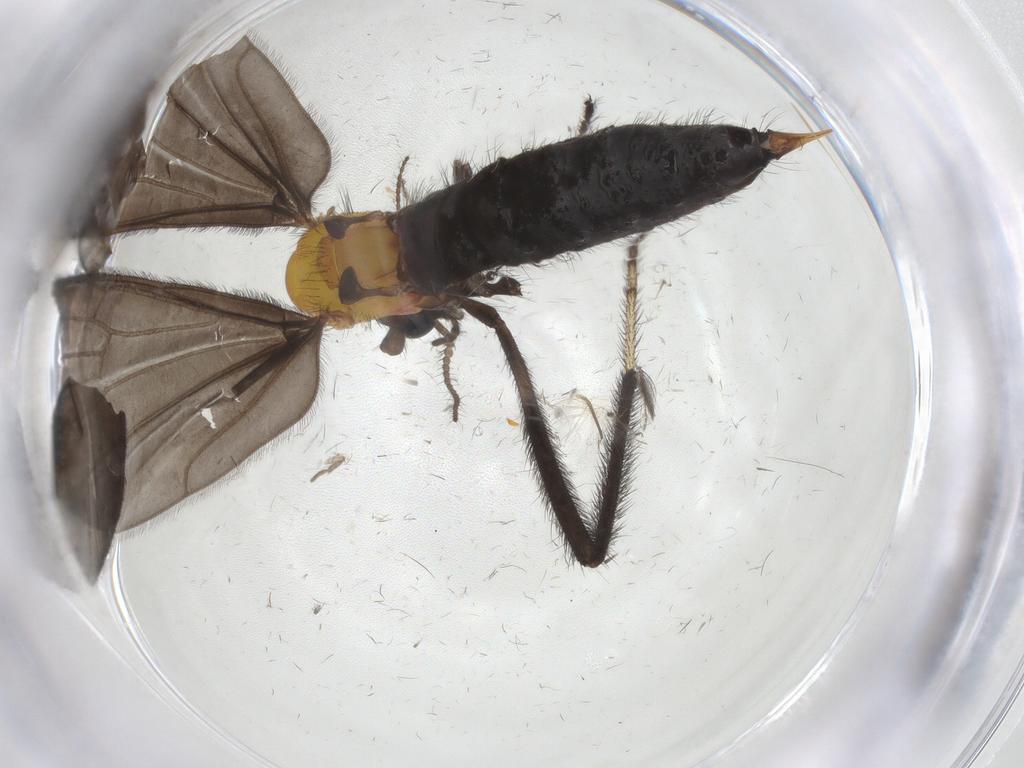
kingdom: Animalia
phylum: Arthropoda
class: Insecta
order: Diptera
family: Limoniidae
